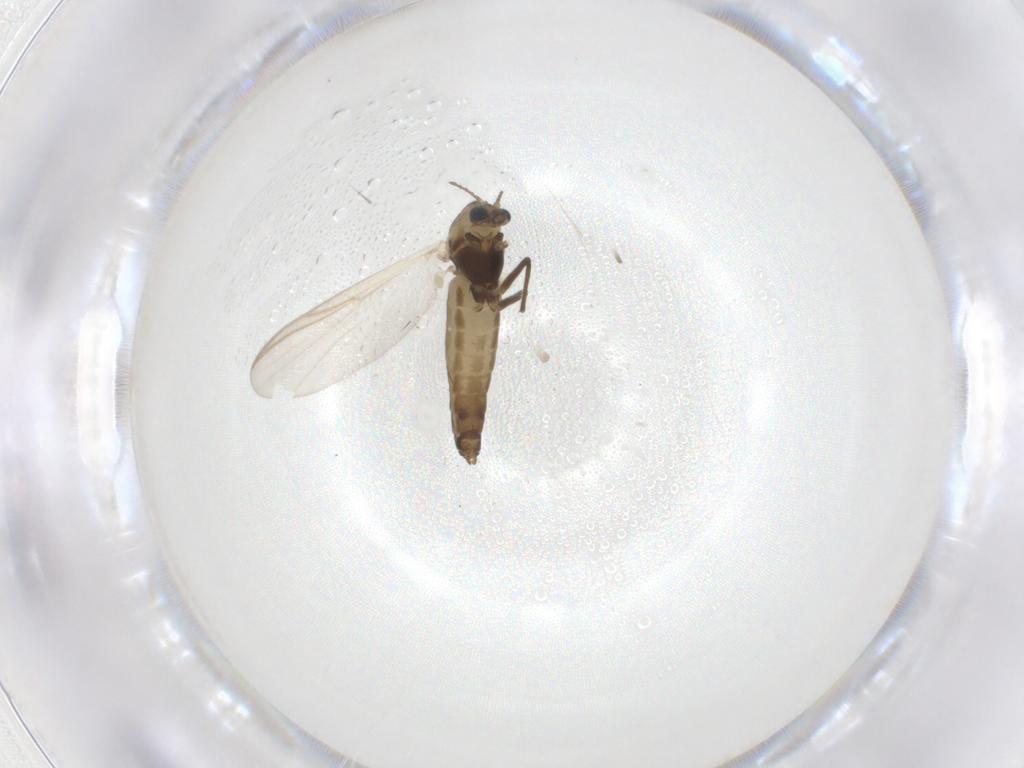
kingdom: Animalia
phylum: Arthropoda
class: Insecta
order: Diptera
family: Chironomidae
